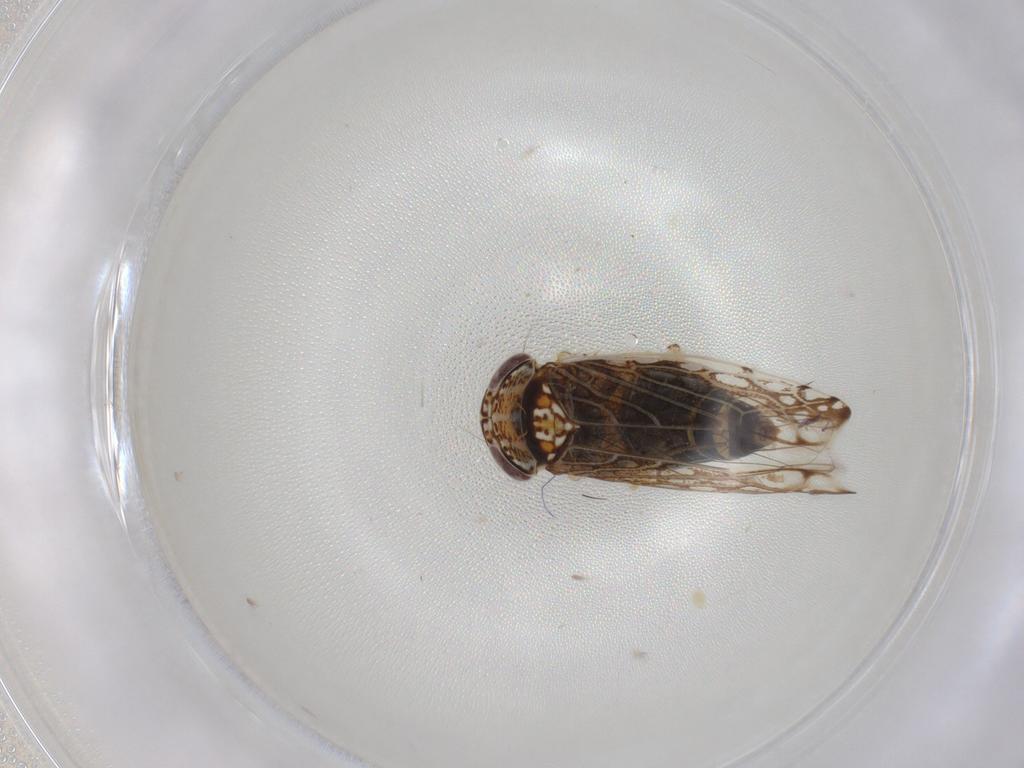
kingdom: Animalia
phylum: Arthropoda
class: Insecta
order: Hemiptera
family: Cicadellidae
